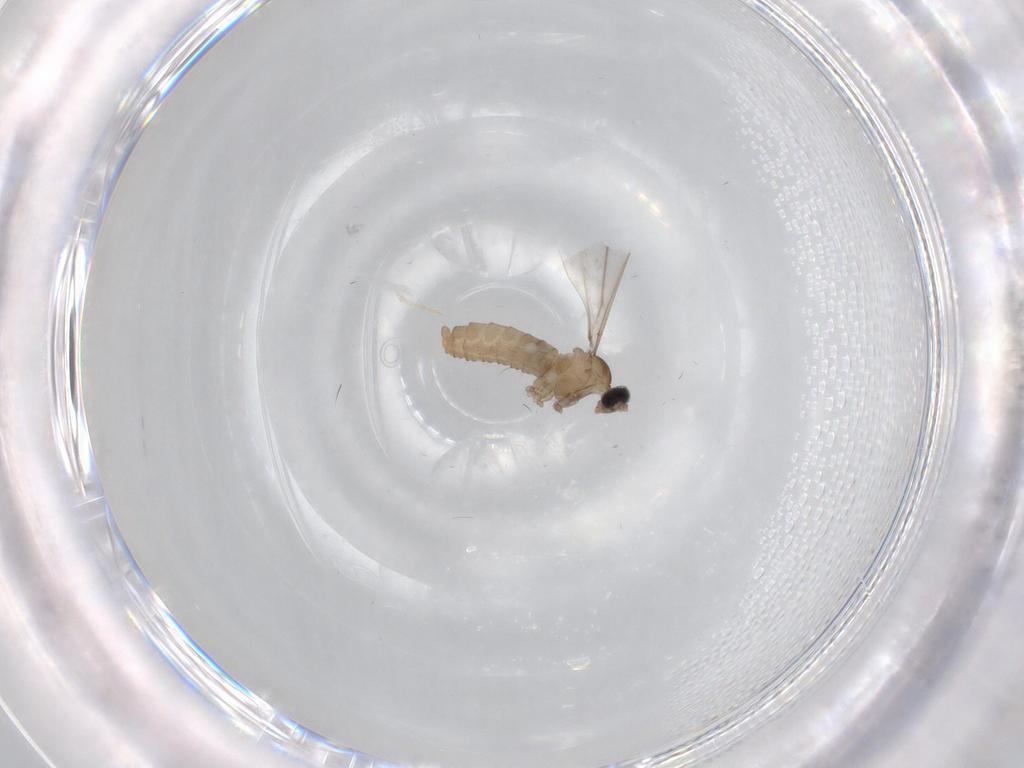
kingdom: Animalia
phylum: Arthropoda
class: Insecta
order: Diptera
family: Cecidomyiidae
